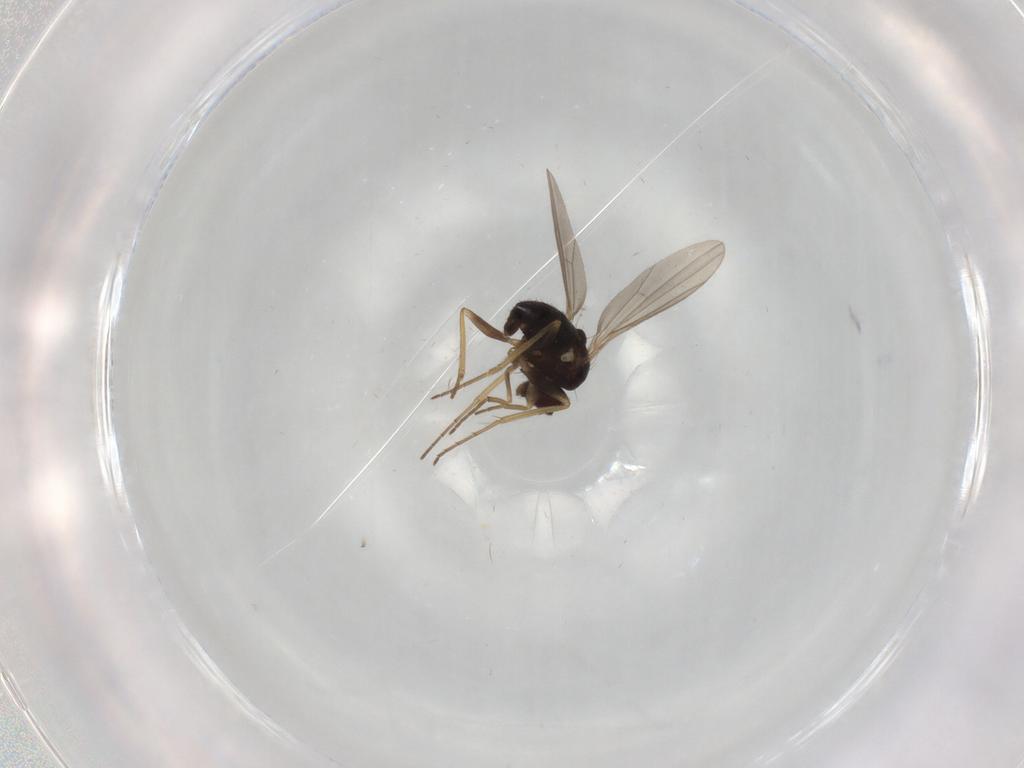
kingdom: Animalia
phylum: Arthropoda
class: Insecta
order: Diptera
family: Dolichopodidae
